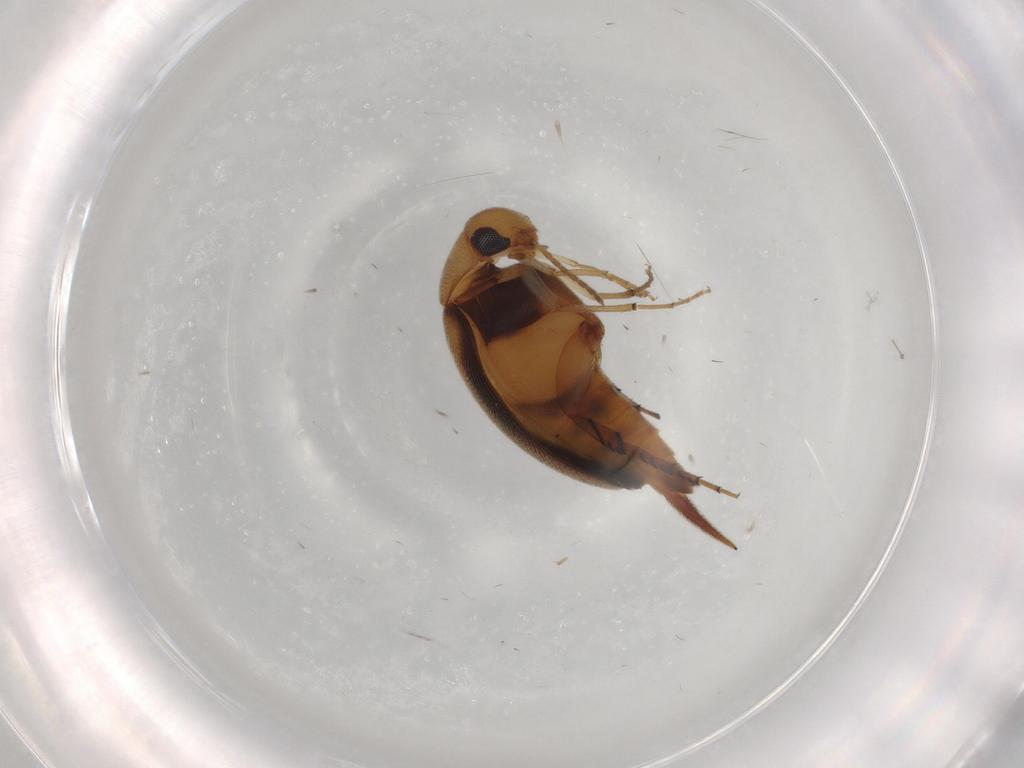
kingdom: Animalia
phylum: Arthropoda
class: Insecta
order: Coleoptera
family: Mordellidae
